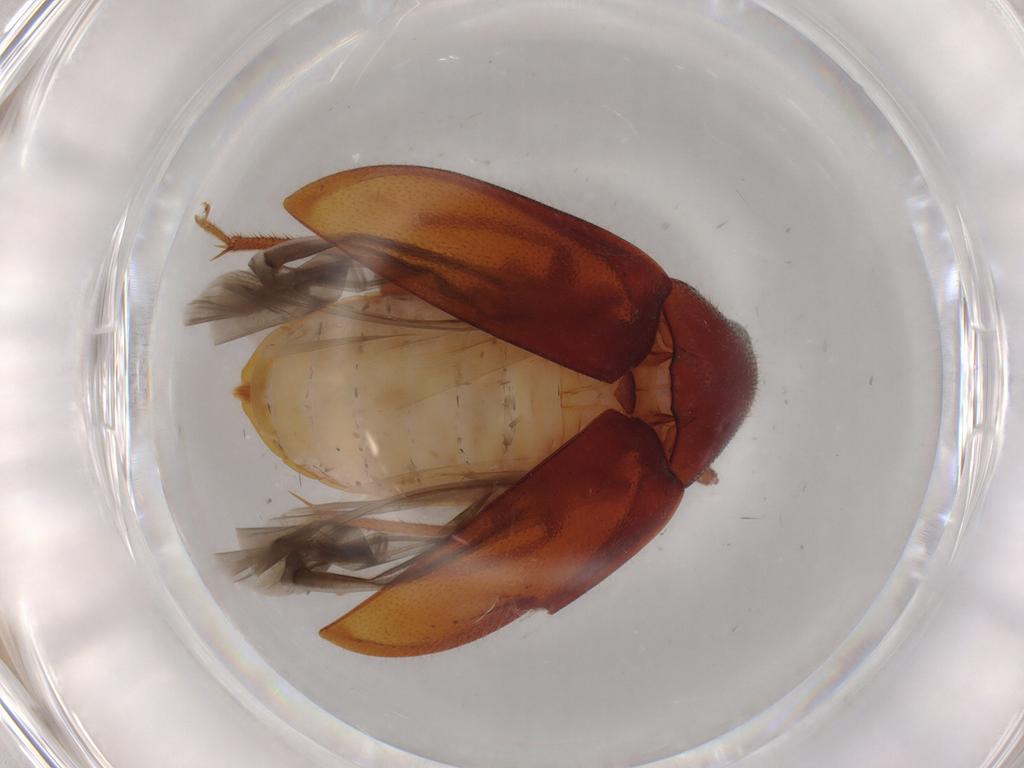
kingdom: Animalia
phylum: Arthropoda
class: Insecta
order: Coleoptera
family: Ptilodactylidae
